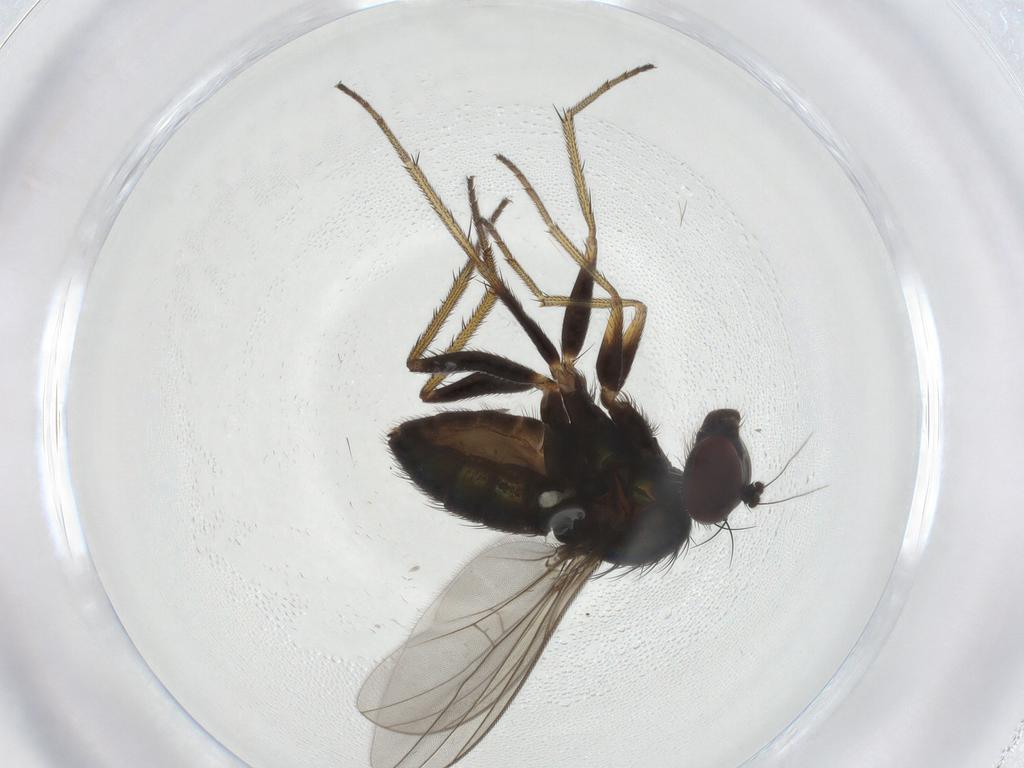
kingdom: Animalia
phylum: Arthropoda
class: Insecta
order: Diptera
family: Dolichopodidae
